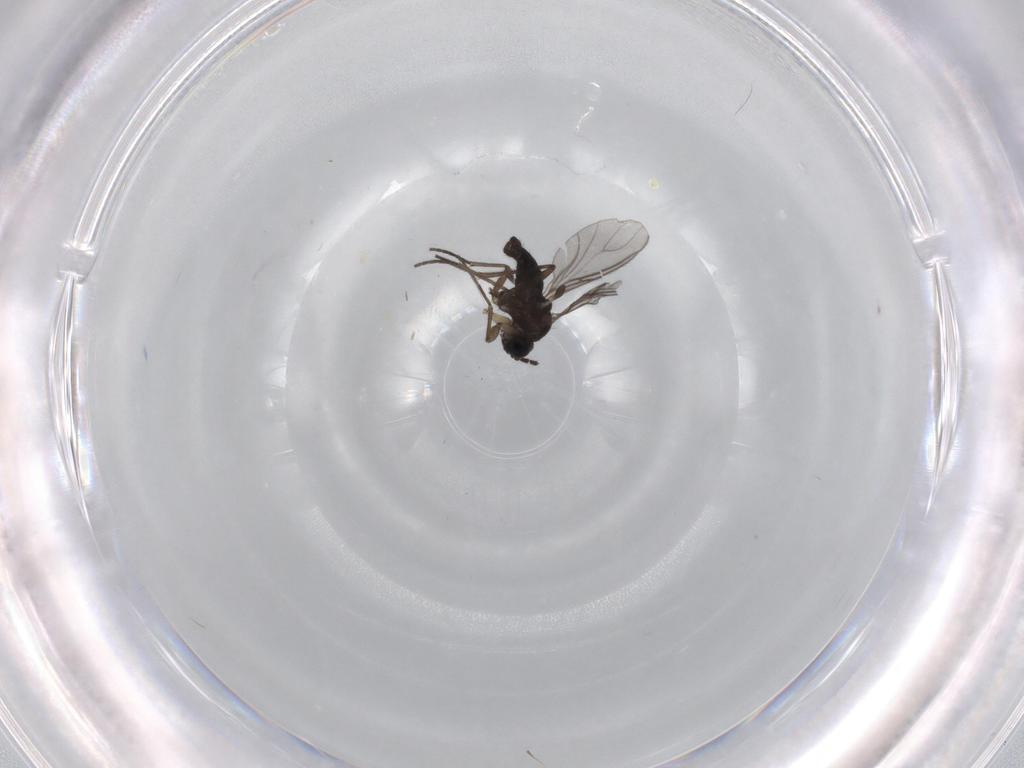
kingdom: Animalia
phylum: Arthropoda
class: Insecta
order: Diptera
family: Sciaridae
